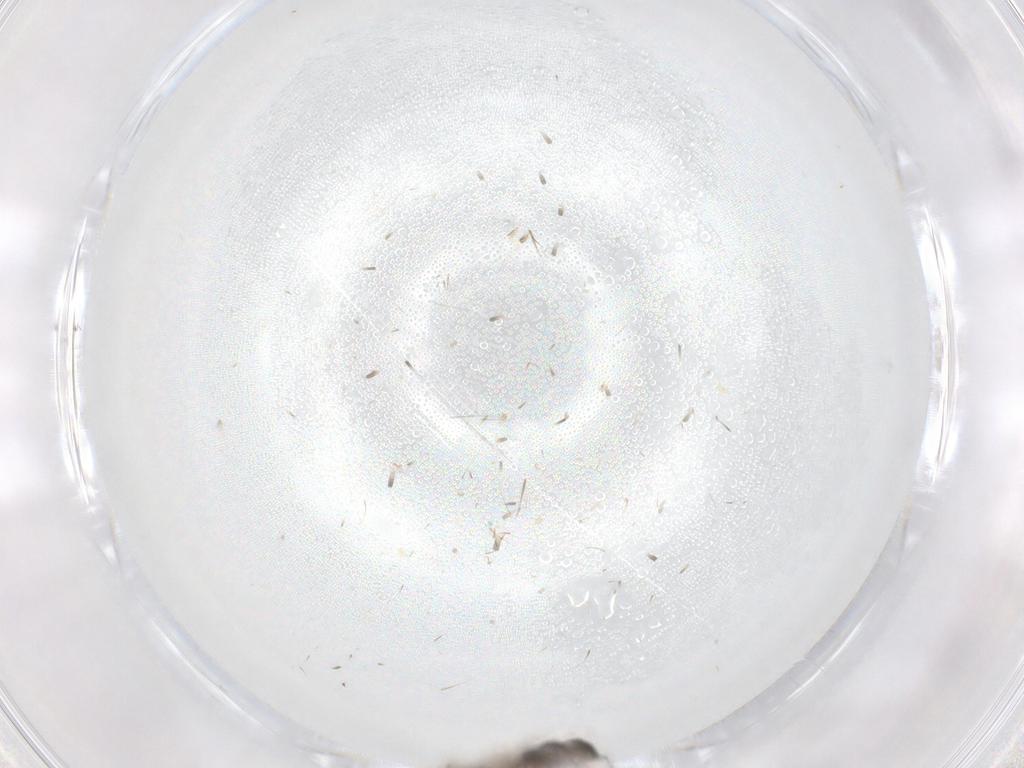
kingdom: Animalia
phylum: Arthropoda
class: Insecta
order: Hymenoptera
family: Scelionidae
